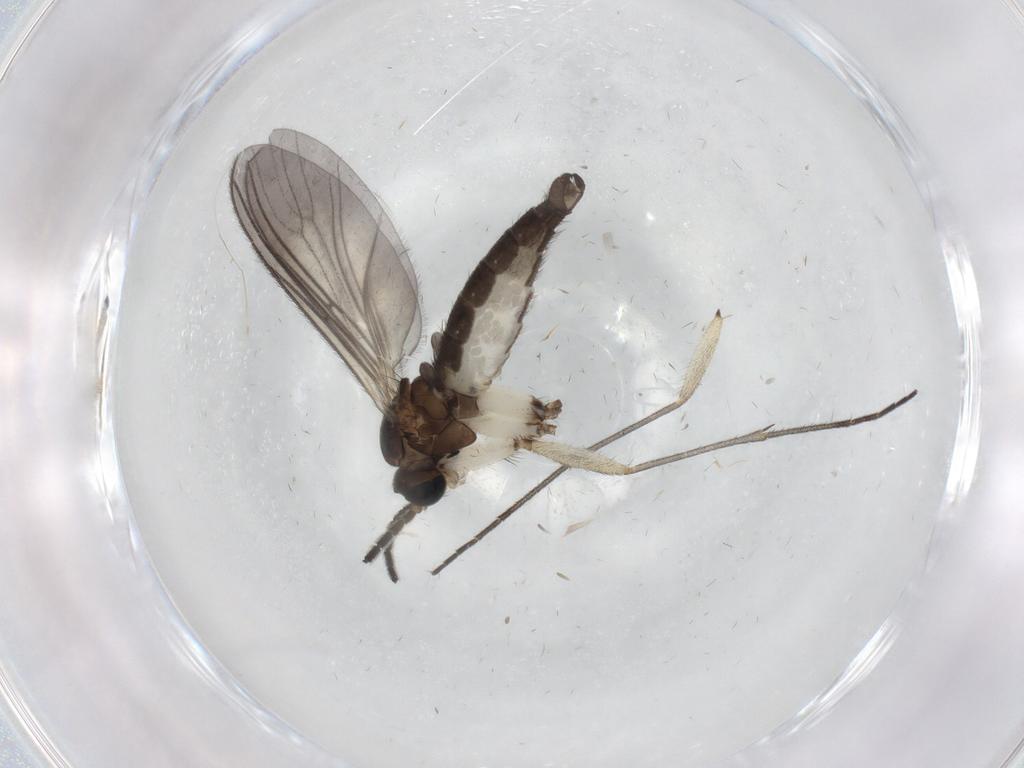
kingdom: Animalia
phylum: Arthropoda
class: Insecta
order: Diptera
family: Sciaridae
